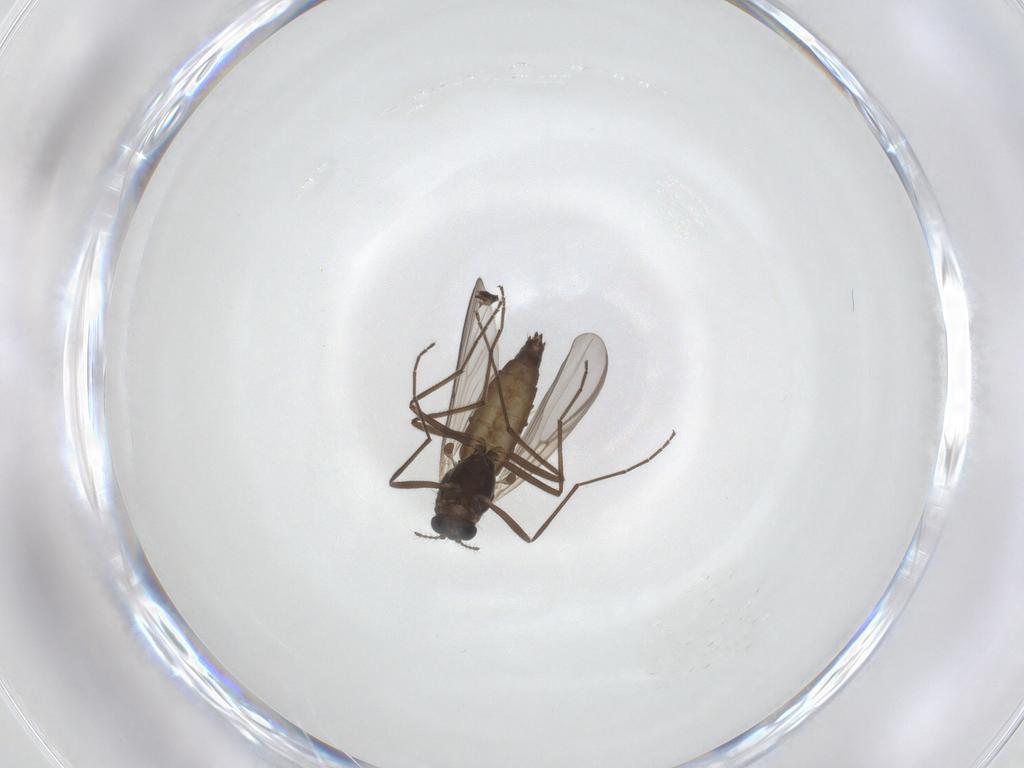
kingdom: Animalia
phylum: Arthropoda
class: Insecta
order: Diptera
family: Chironomidae
